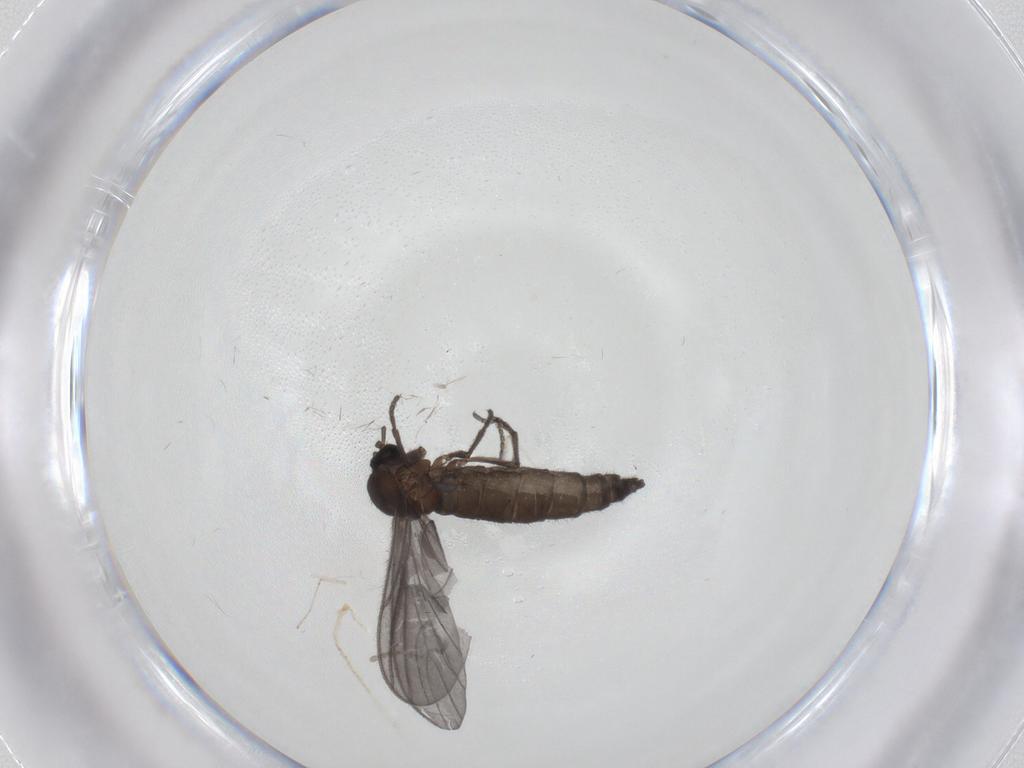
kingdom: Animalia
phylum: Arthropoda
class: Insecta
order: Diptera
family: Sciaridae
